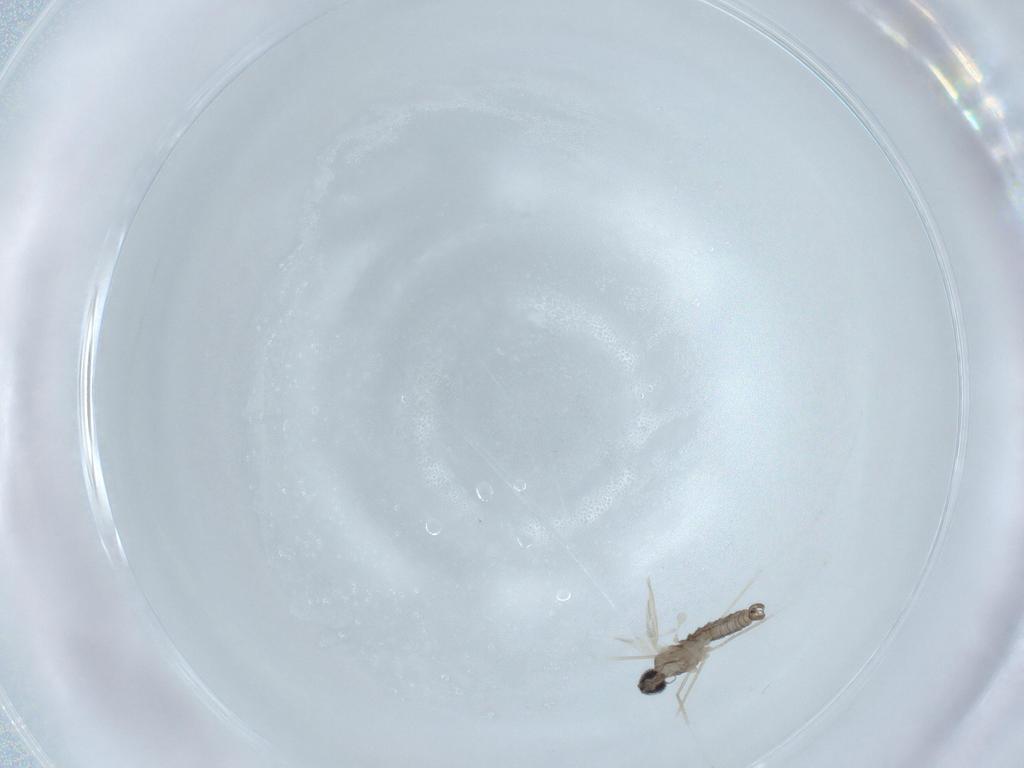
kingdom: Animalia
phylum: Arthropoda
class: Insecta
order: Diptera
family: Cecidomyiidae
